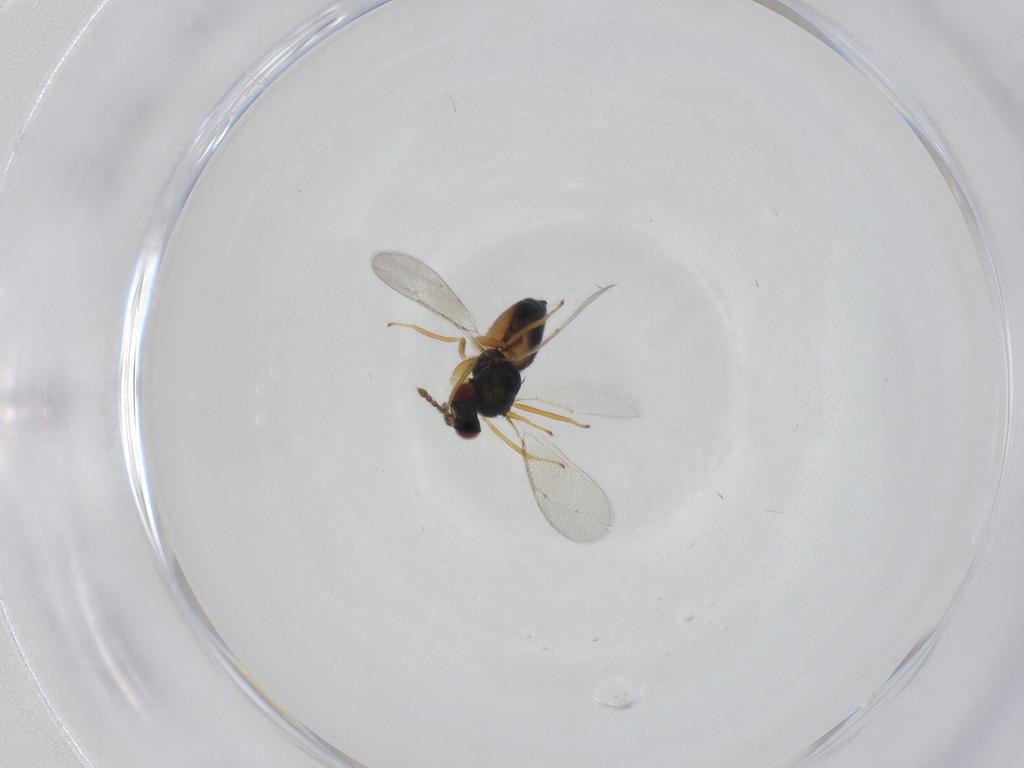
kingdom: Animalia
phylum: Arthropoda
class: Insecta
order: Hymenoptera
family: Eulophidae
